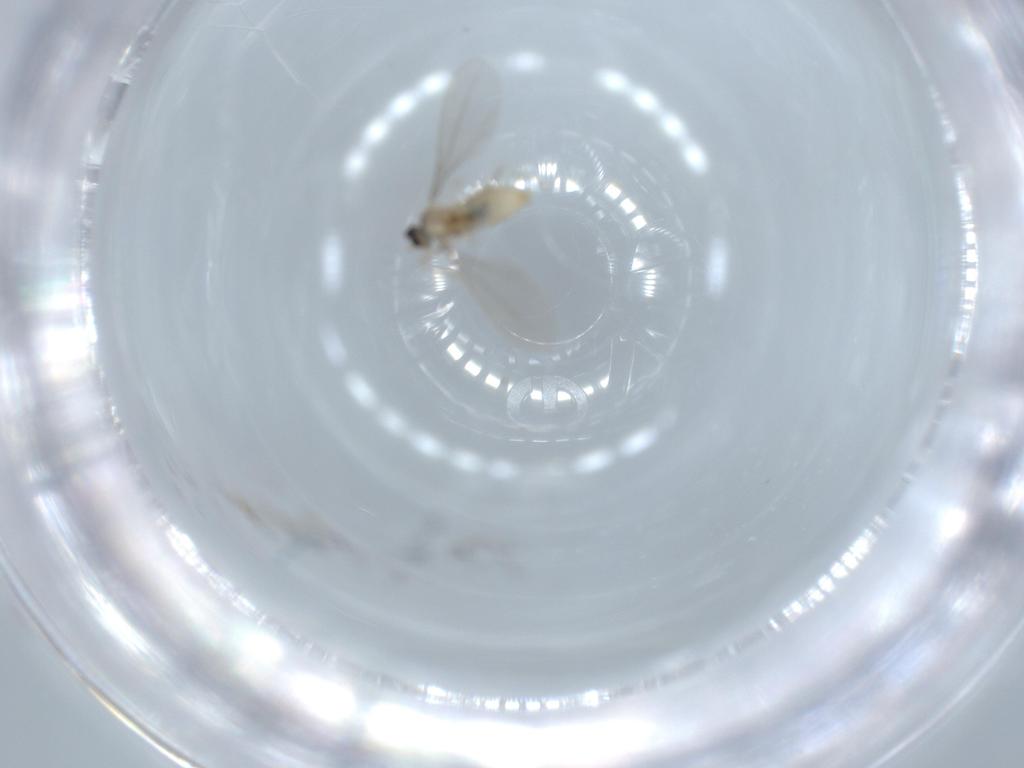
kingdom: Animalia
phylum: Arthropoda
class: Insecta
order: Diptera
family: Cecidomyiidae
